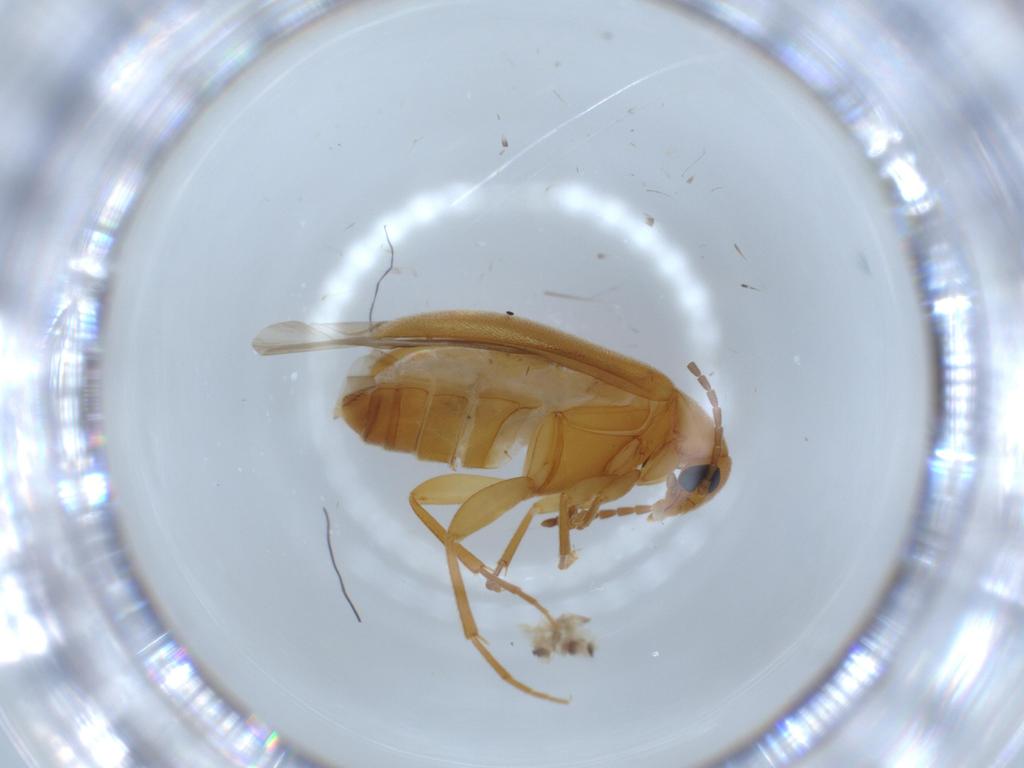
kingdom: Animalia
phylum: Arthropoda
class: Insecta
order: Coleoptera
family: Scraptiidae
